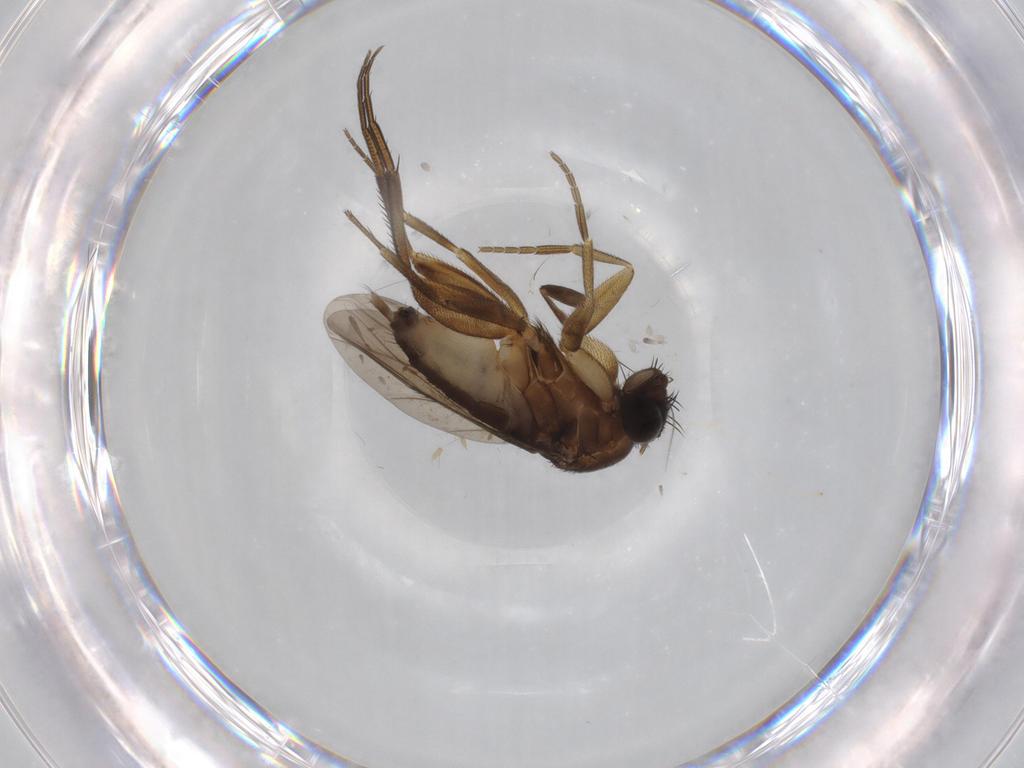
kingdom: Animalia
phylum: Arthropoda
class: Insecta
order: Diptera
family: Phoridae
